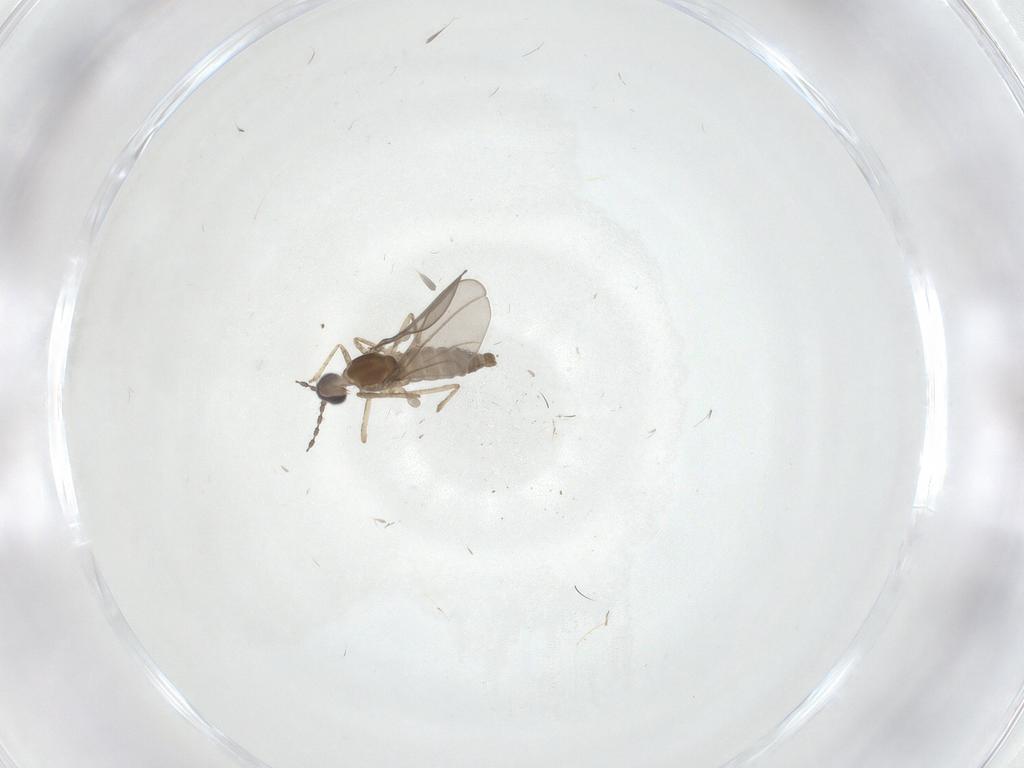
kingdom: Animalia
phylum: Arthropoda
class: Insecta
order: Diptera
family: Cecidomyiidae
